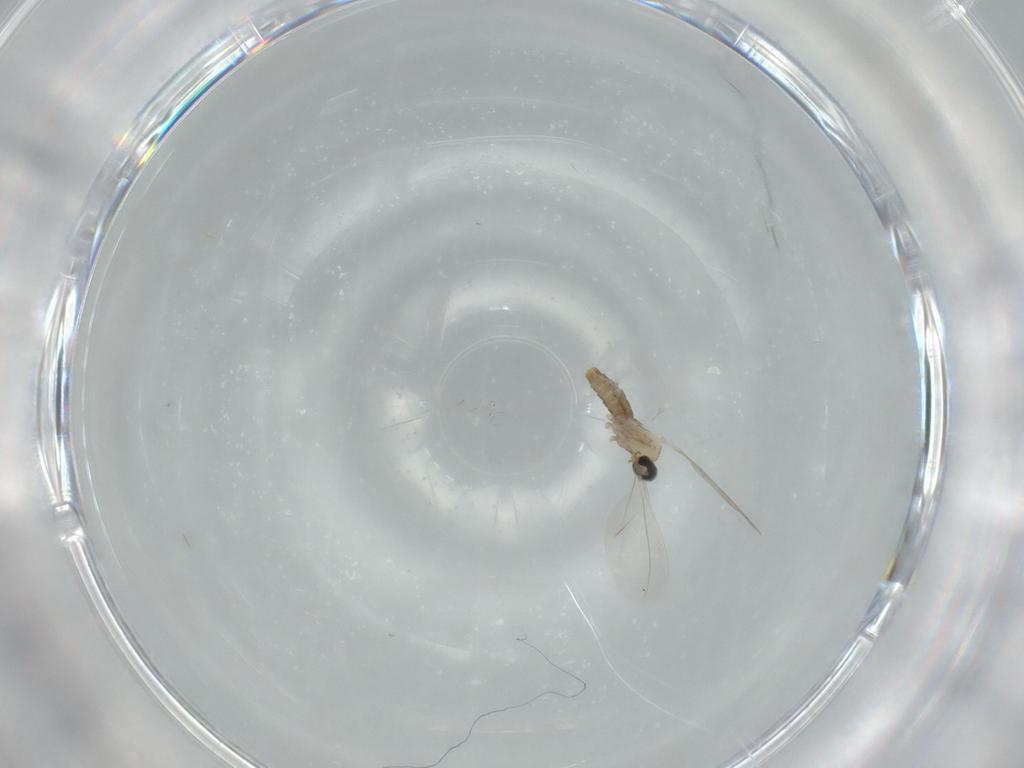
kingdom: Animalia
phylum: Arthropoda
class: Insecta
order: Diptera
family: Cecidomyiidae
